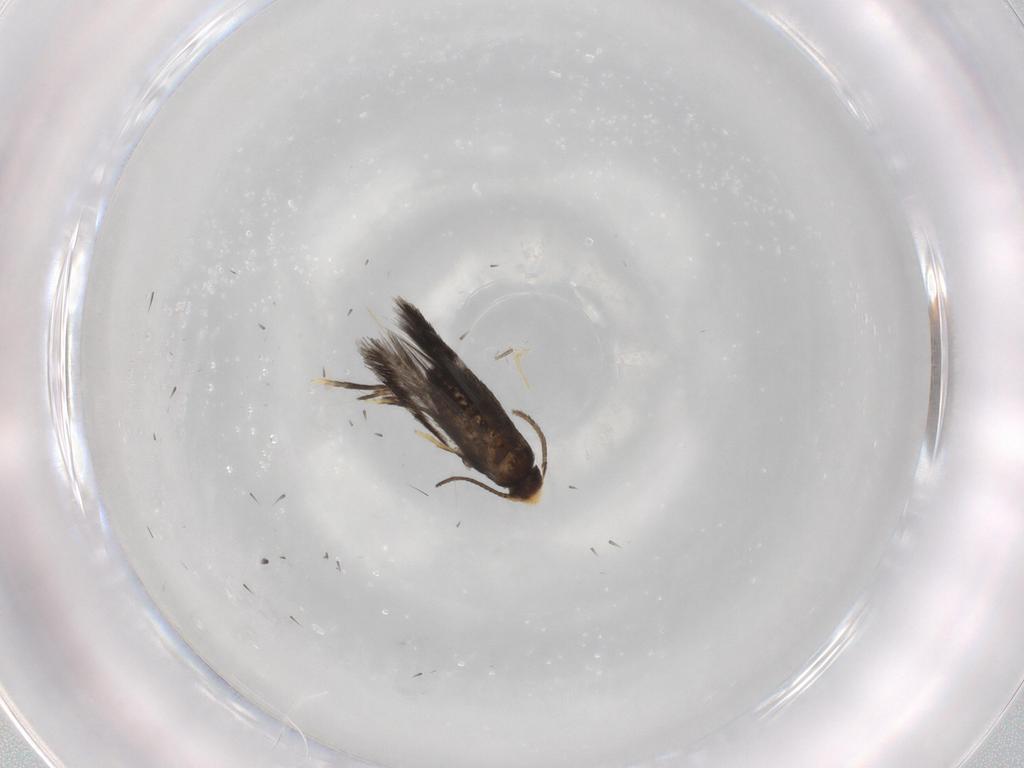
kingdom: Animalia
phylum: Arthropoda
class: Insecta
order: Lepidoptera
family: Nepticulidae
